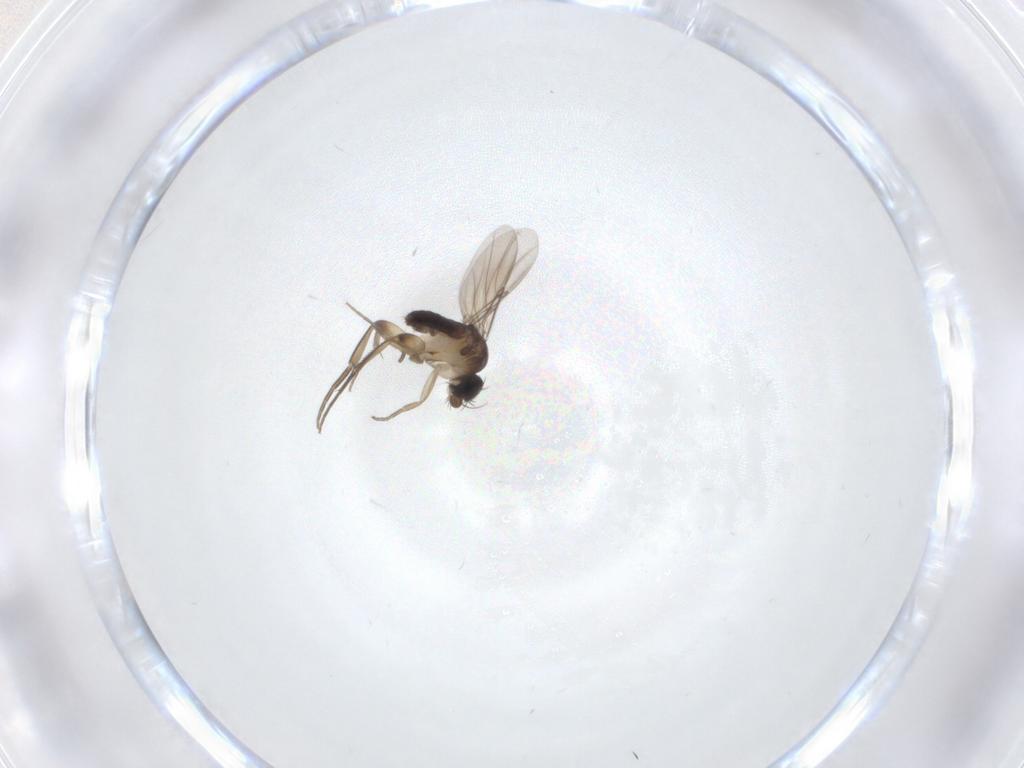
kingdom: Animalia
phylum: Arthropoda
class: Insecta
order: Diptera
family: Phoridae
